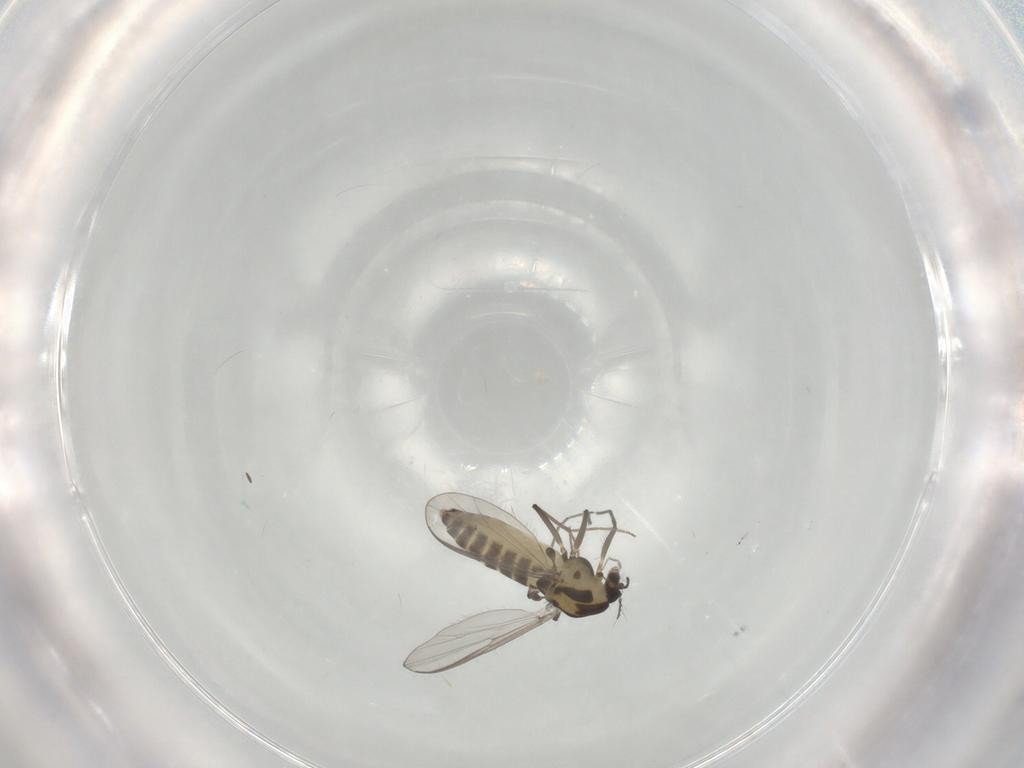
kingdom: Animalia
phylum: Arthropoda
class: Insecta
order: Diptera
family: Chironomidae
